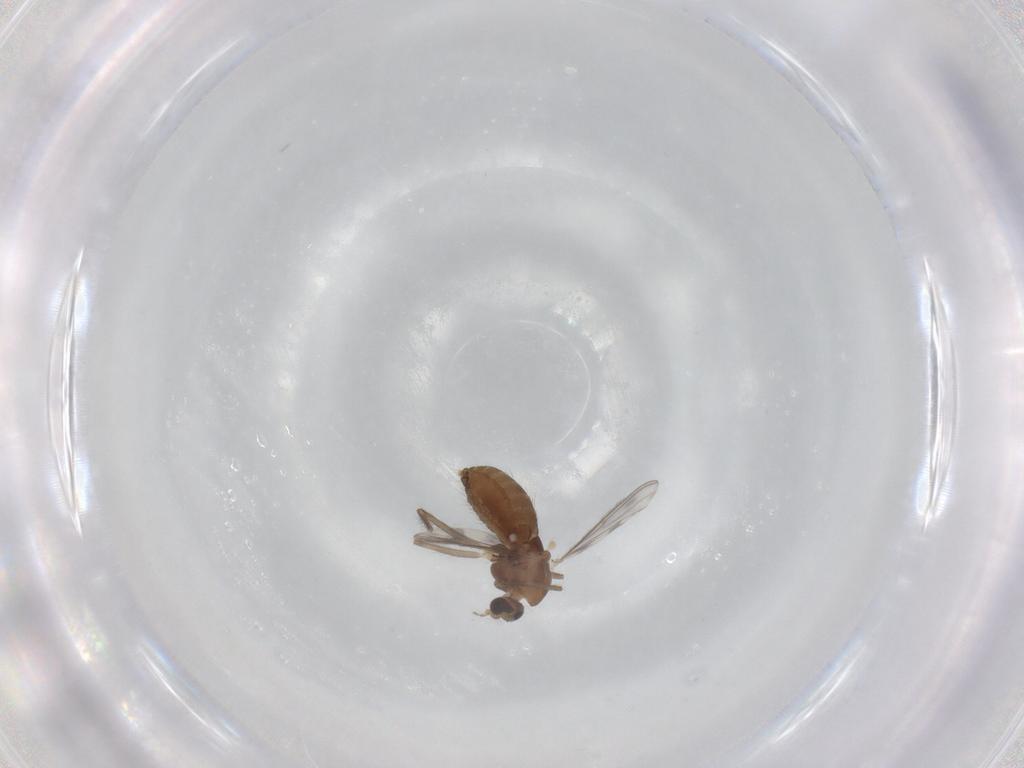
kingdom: Animalia
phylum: Arthropoda
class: Insecta
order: Diptera
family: Chironomidae
